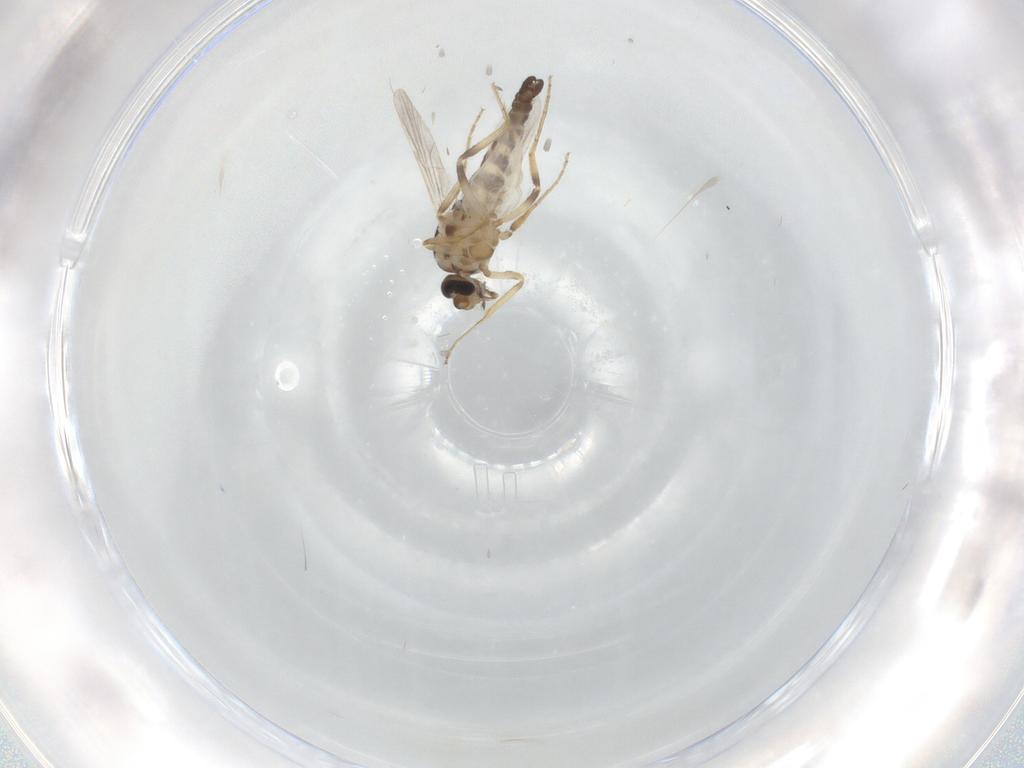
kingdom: Animalia
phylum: Arthropoda
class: Insecta
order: Diptera
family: Ceratopogonidae
